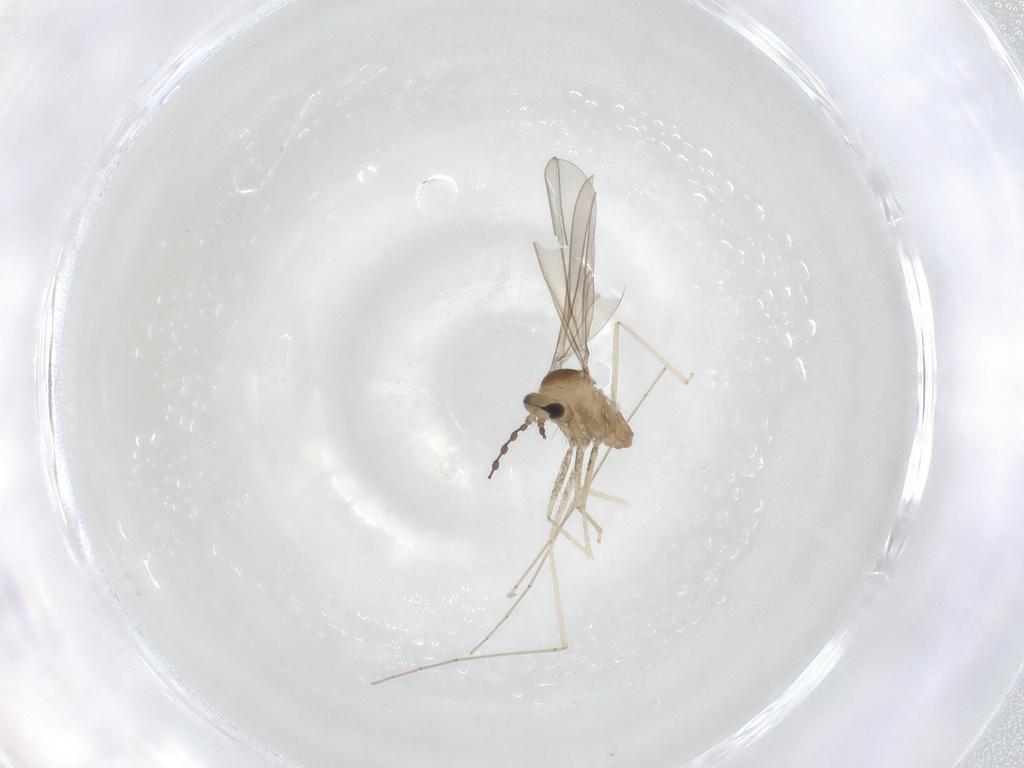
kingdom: Animalia
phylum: Arthropoda
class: Insecta
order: Diptera
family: Cecidomyiidae
